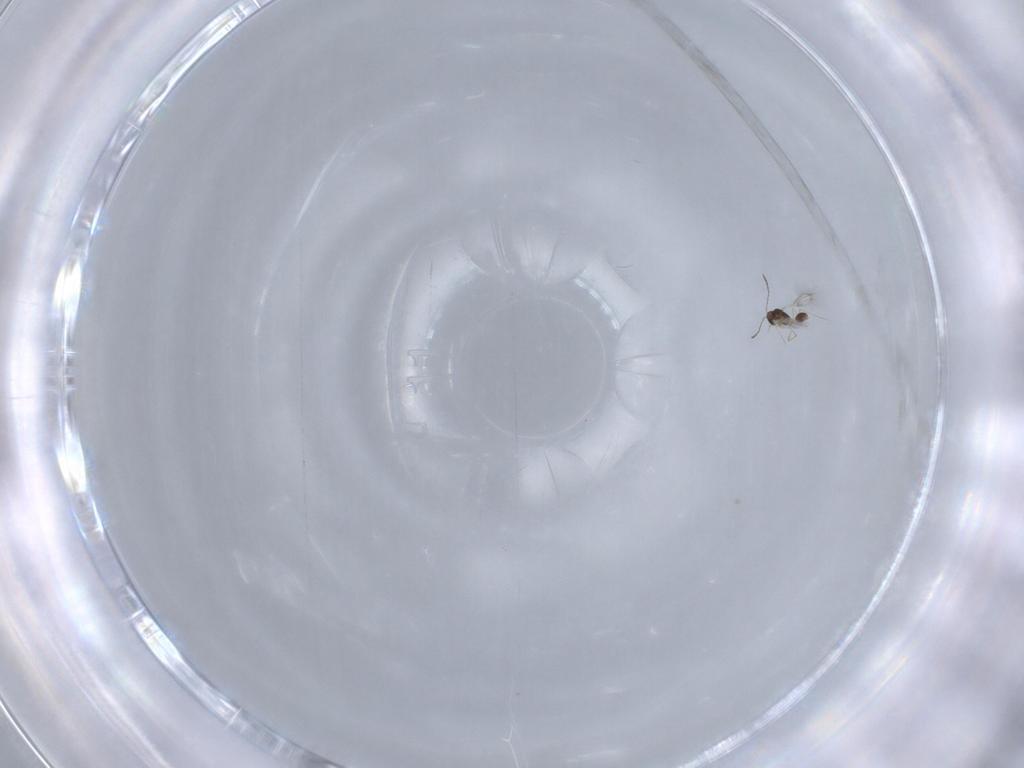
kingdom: Animalia
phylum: Arthropoda
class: Insecta
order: Hymenoptera
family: Mymarommatidae
